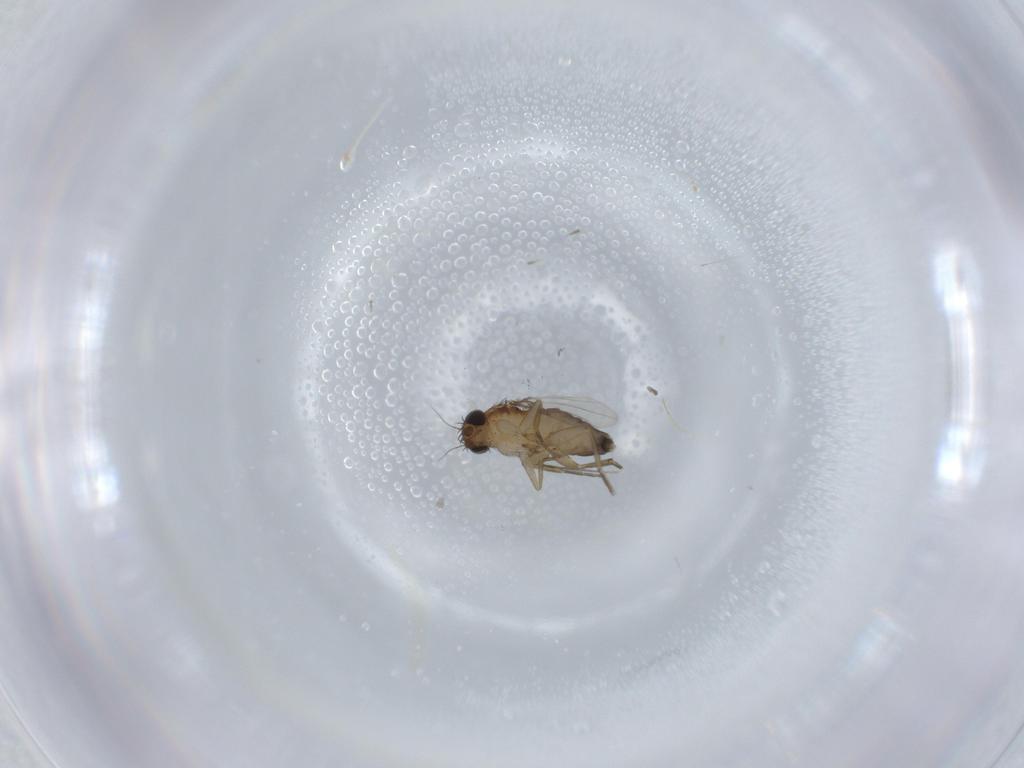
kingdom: Animalia
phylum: Arthropoda
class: Insecta
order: Diptera
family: Phoridae
